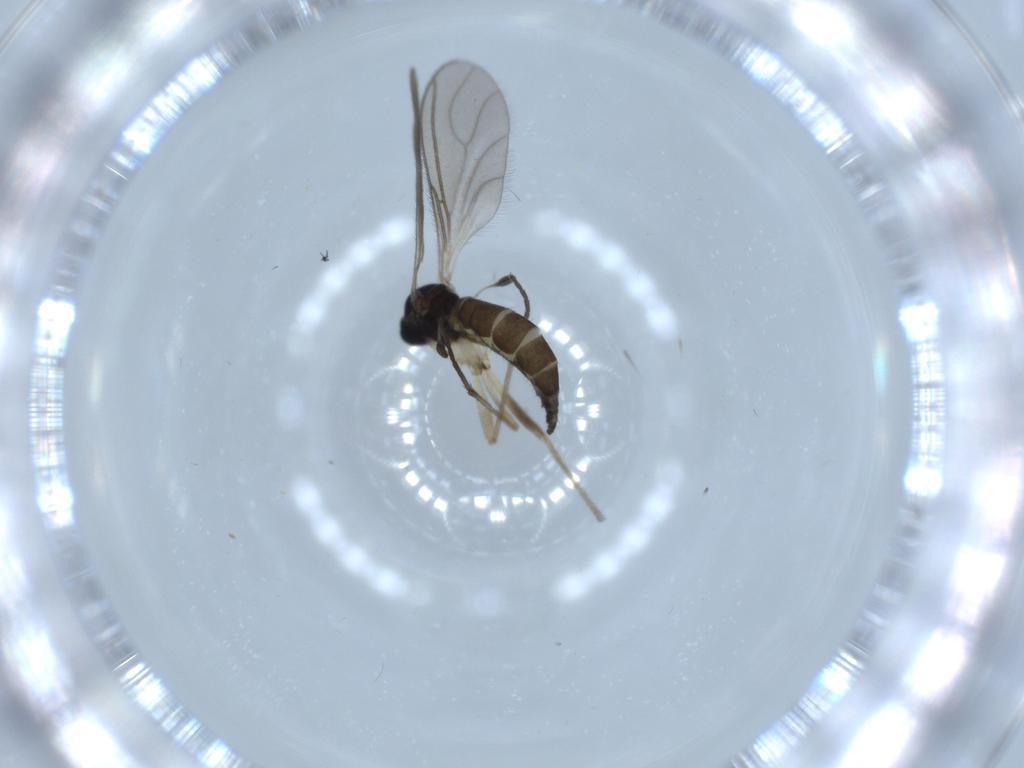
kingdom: Animalia
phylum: Arthropoda
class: Insecta
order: Diptera
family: Sciaridae
